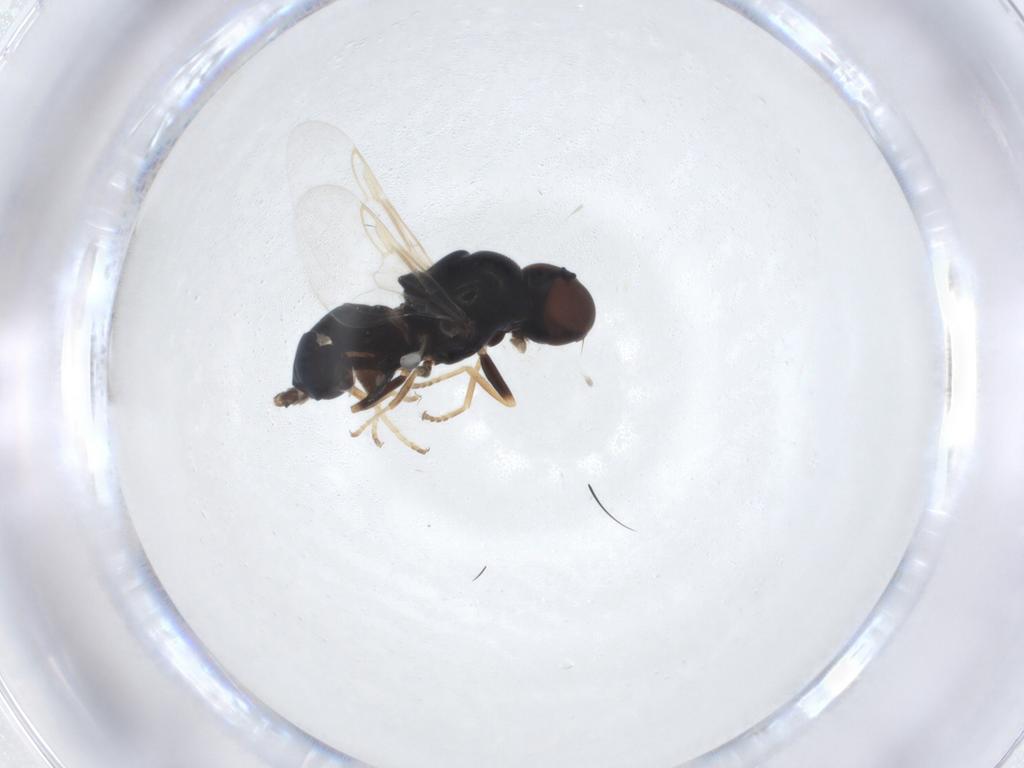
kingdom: Animalia
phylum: Arthropoda
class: Insecta
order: Diptera
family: Stratiomyidae
